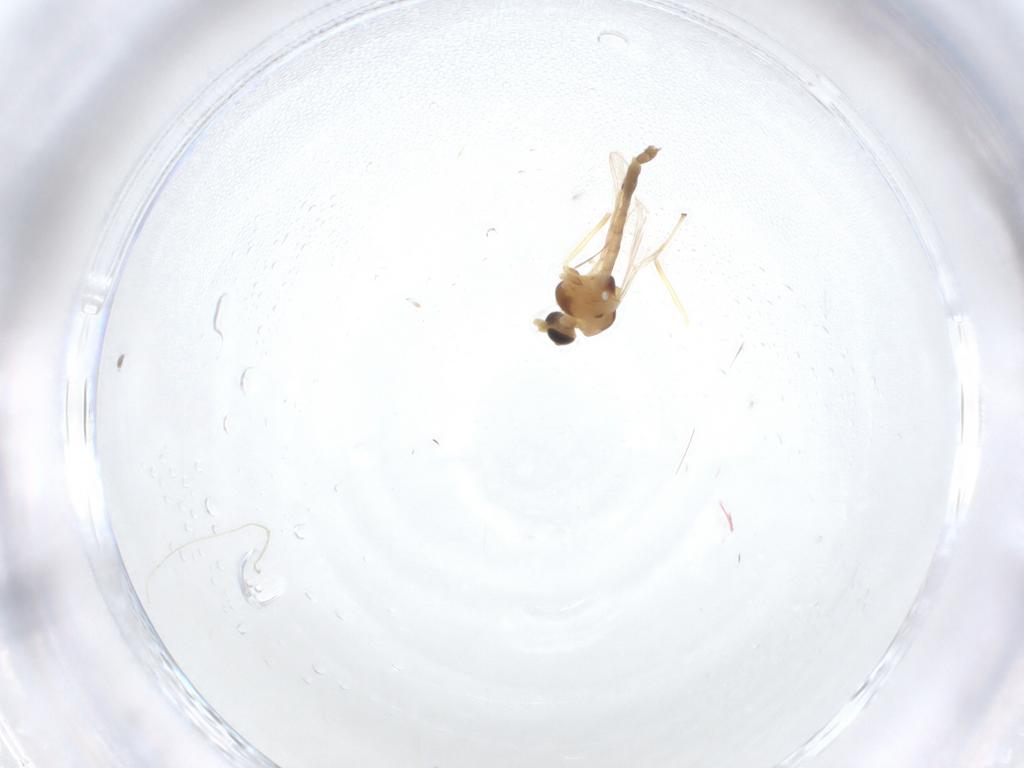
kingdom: Animalia
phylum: Arthropoda
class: Insecta
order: Diptera
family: Chironomidae
